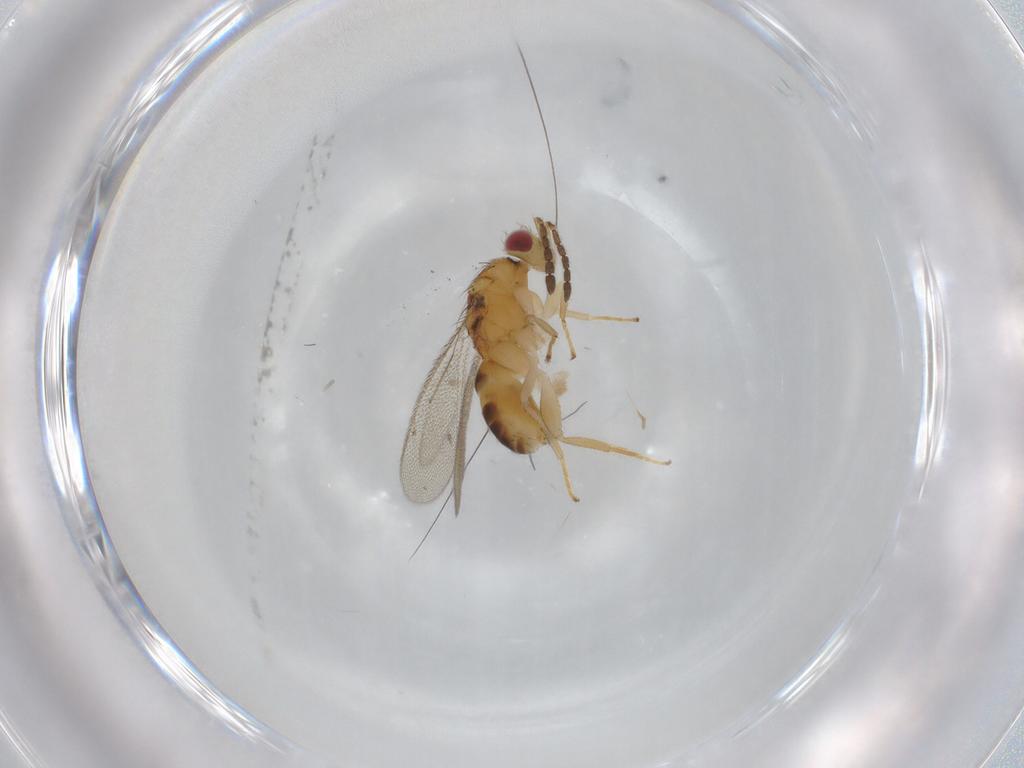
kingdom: Animalia
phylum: Arthropoda
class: Insecta
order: Hymenoptera
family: Eulophidae
